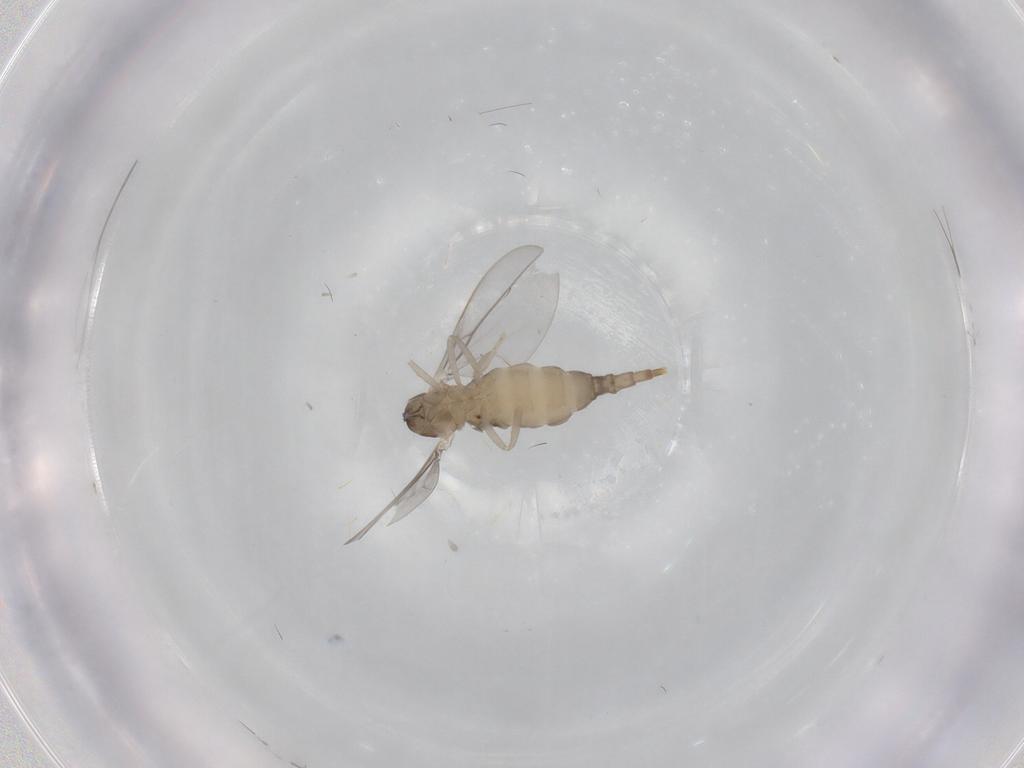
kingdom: Animalia
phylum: Arthropoda
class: Insecta
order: Diptera
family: Cecidomyiidae
